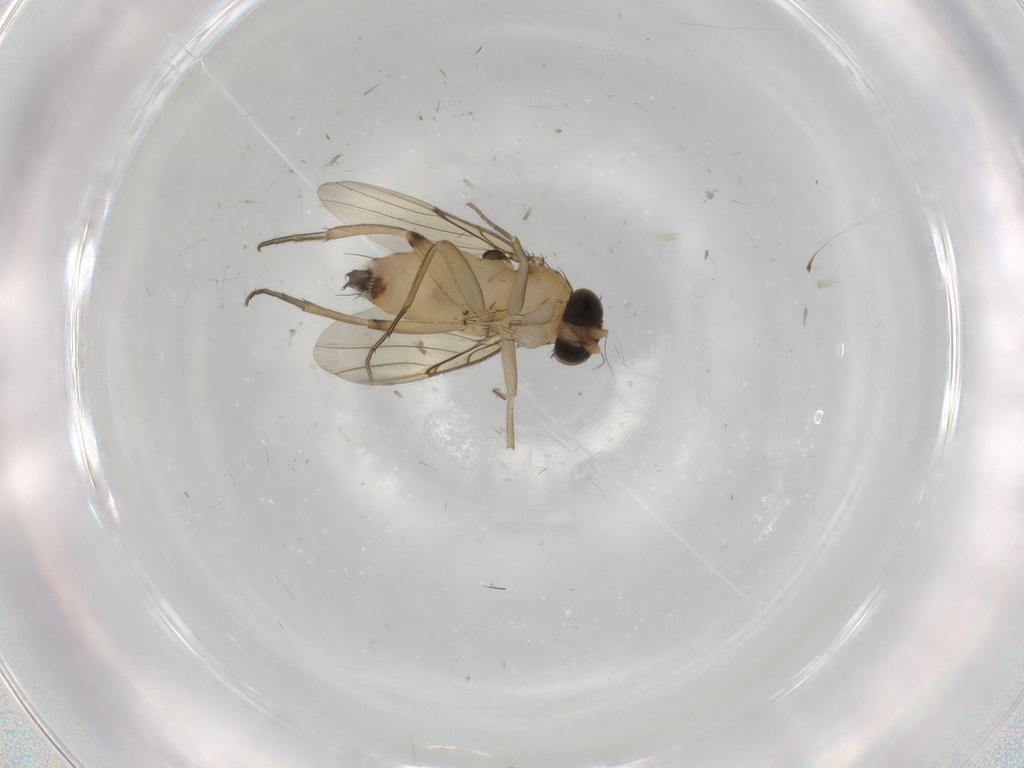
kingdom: Animalia
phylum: Arthropoda
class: Insecta
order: Diptera
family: Phoridae
